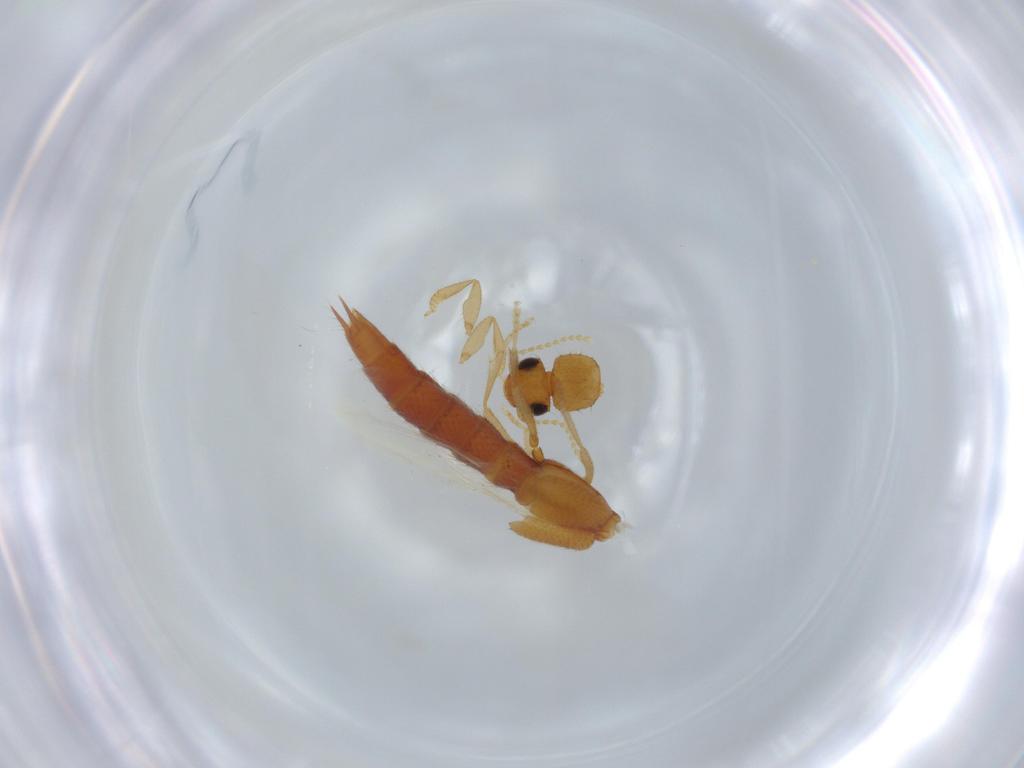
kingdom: Animalia
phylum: Arthropoda
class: Insecta
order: Coleoptera
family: Staphylinidae
